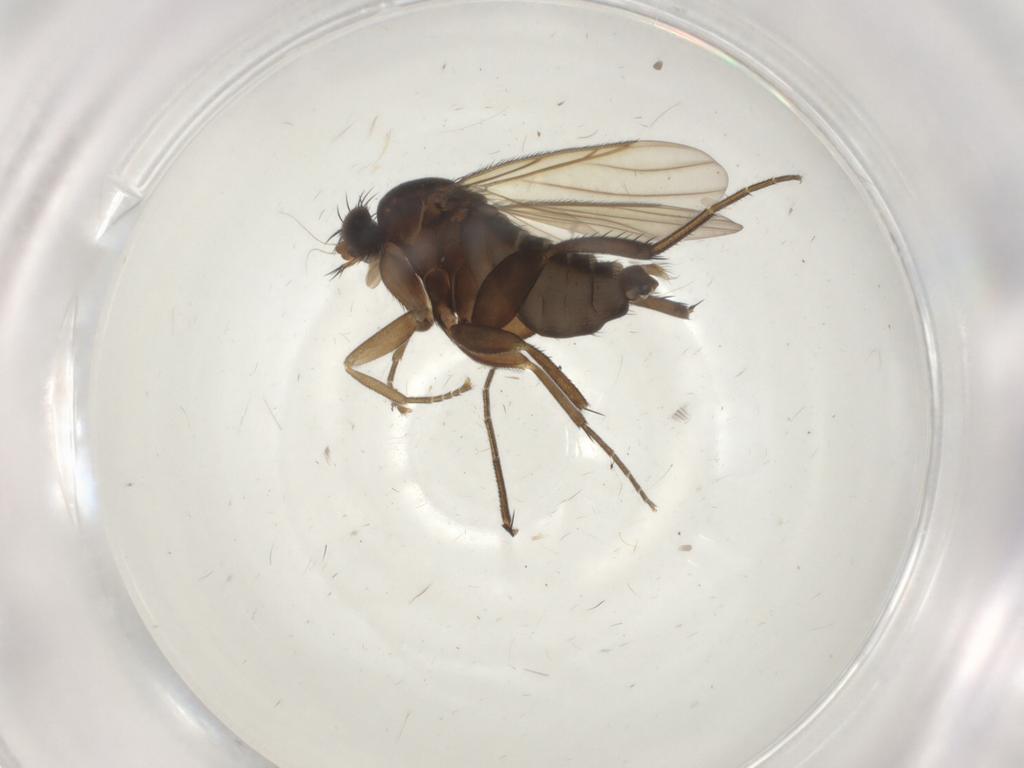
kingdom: Animalia
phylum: Arthropoda
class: Insecta
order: Diptera
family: Phoridae
